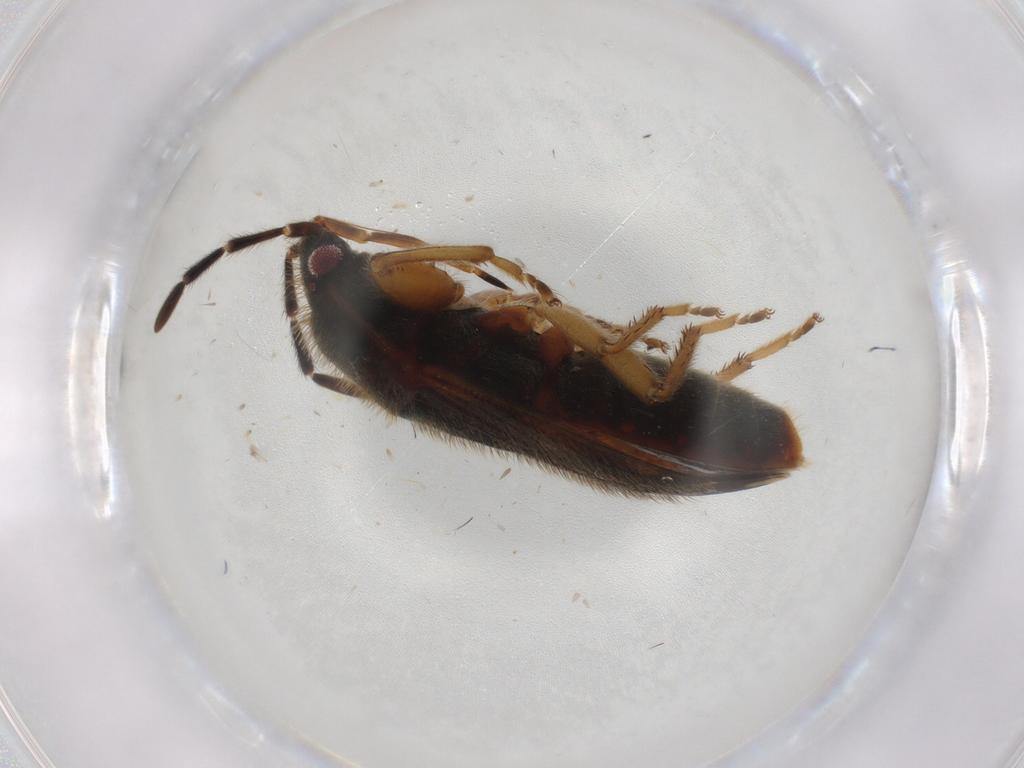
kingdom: Animalia
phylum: Arthropoda
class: Insecta
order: Hemiptera
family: Rhyparochromidae
